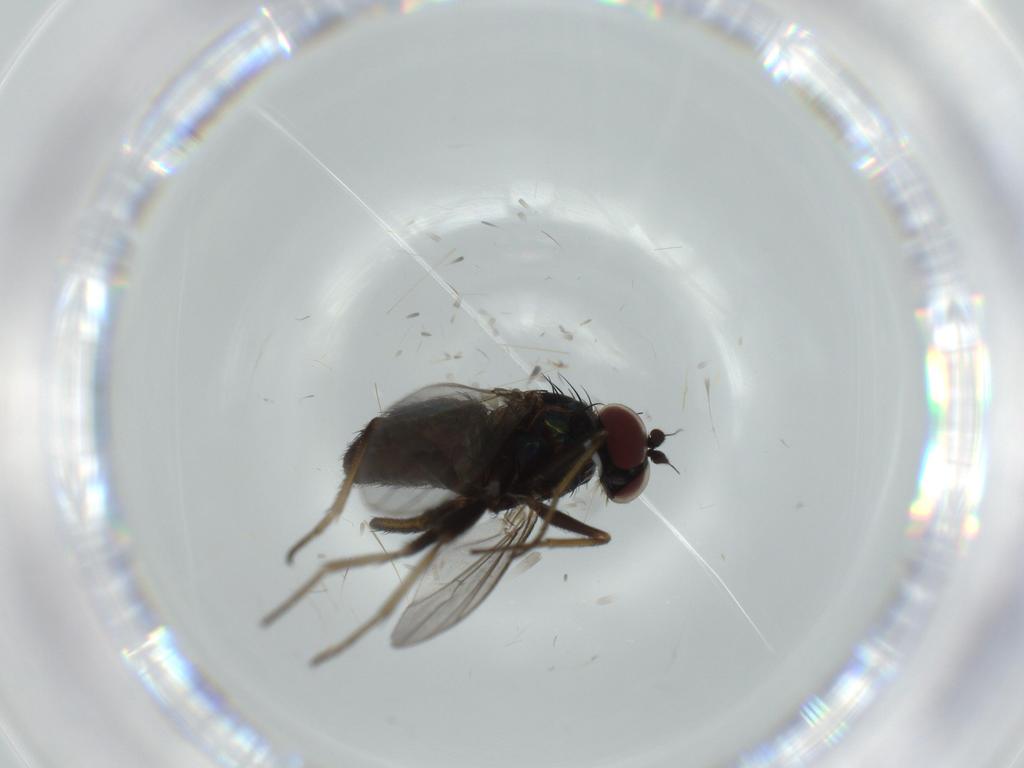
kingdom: Animalia
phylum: Arthropoda
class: Insecta
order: Diptera
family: Dolichopodidae
